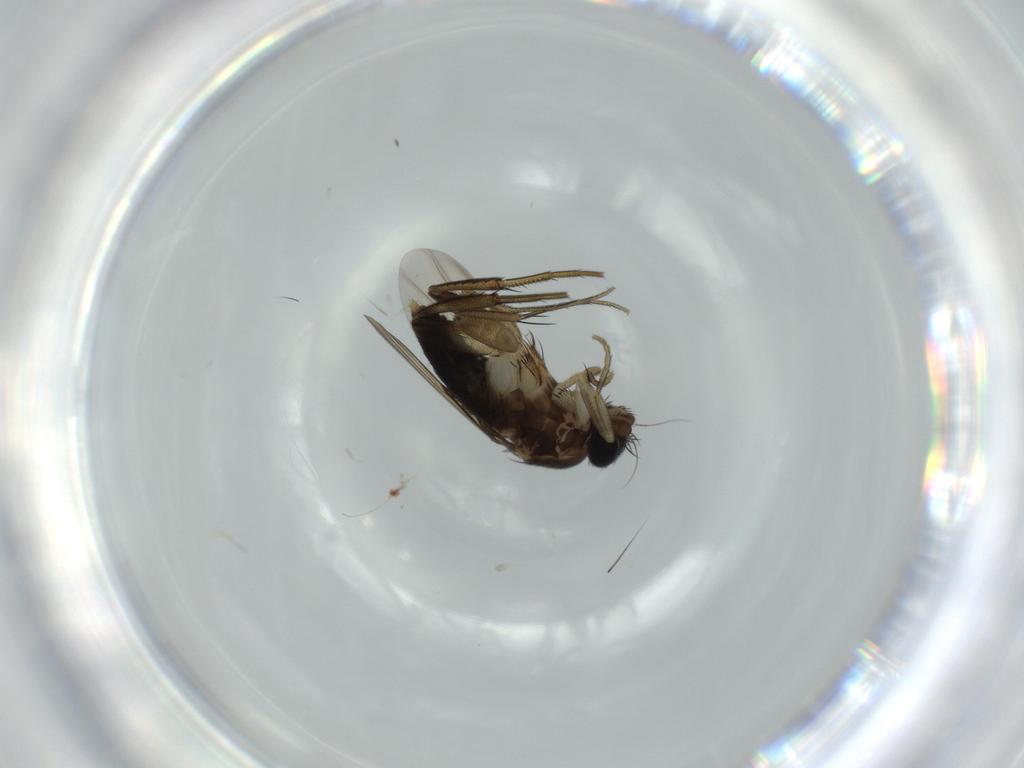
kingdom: Animalia
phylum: Arthropoda
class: Insecta
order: Diptera
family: Phoridae
